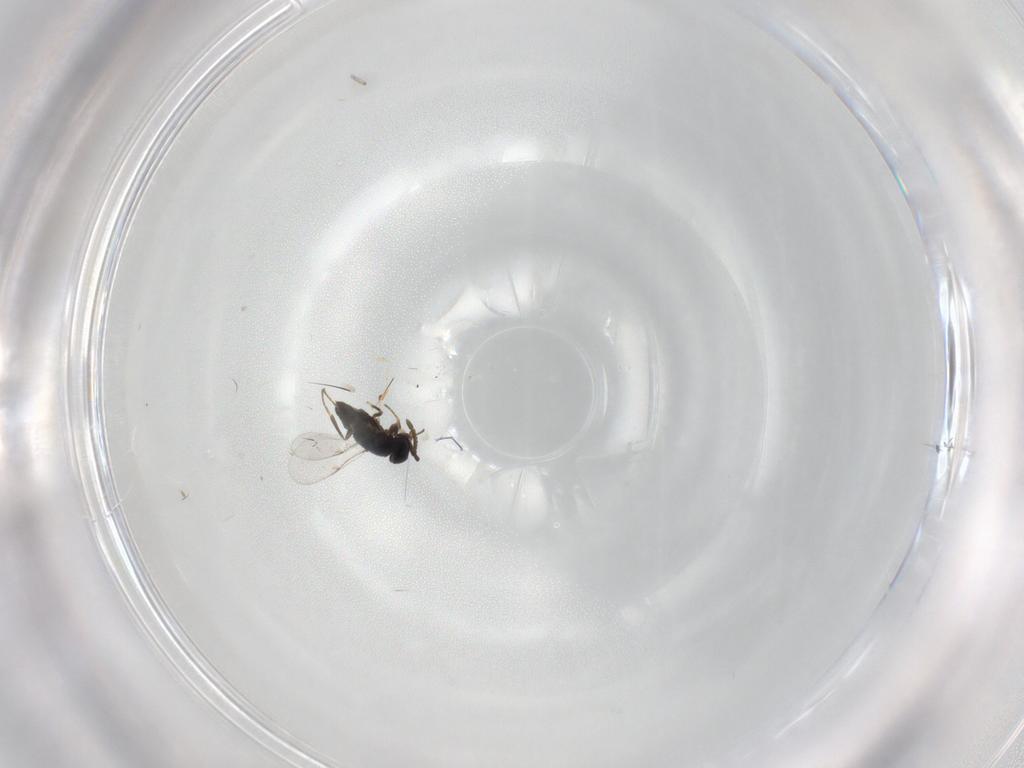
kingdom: Animalia
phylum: Arthropoda
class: Insecta
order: Hymenoptera
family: Encyrtidae
